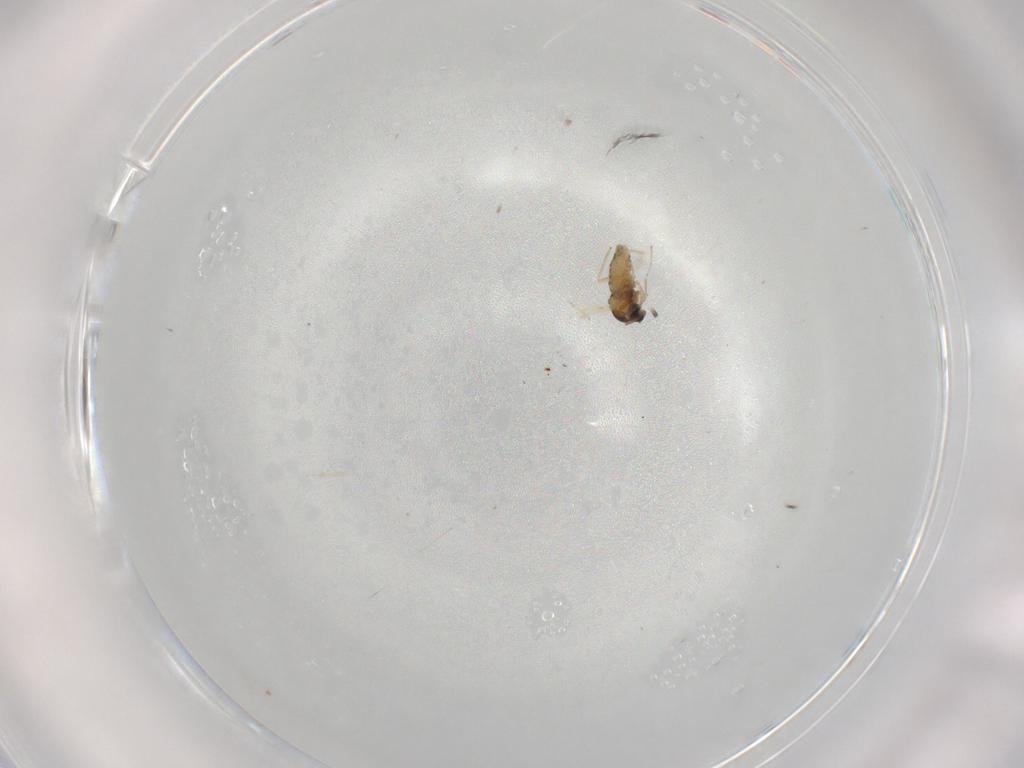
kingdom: Animalia
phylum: Arthropoda
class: Insecta
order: Diptera
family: Cecidomyiidae
